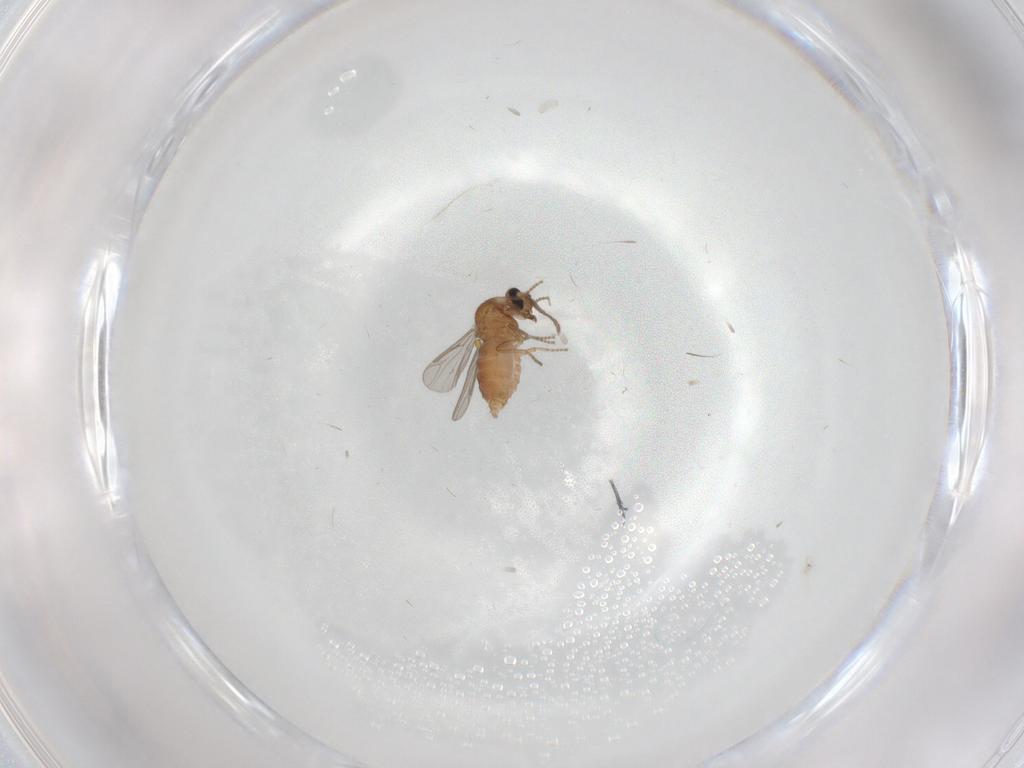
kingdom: Animalia
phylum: Arthropoda
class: Insecta
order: Diptera
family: Ceratopogonidae
